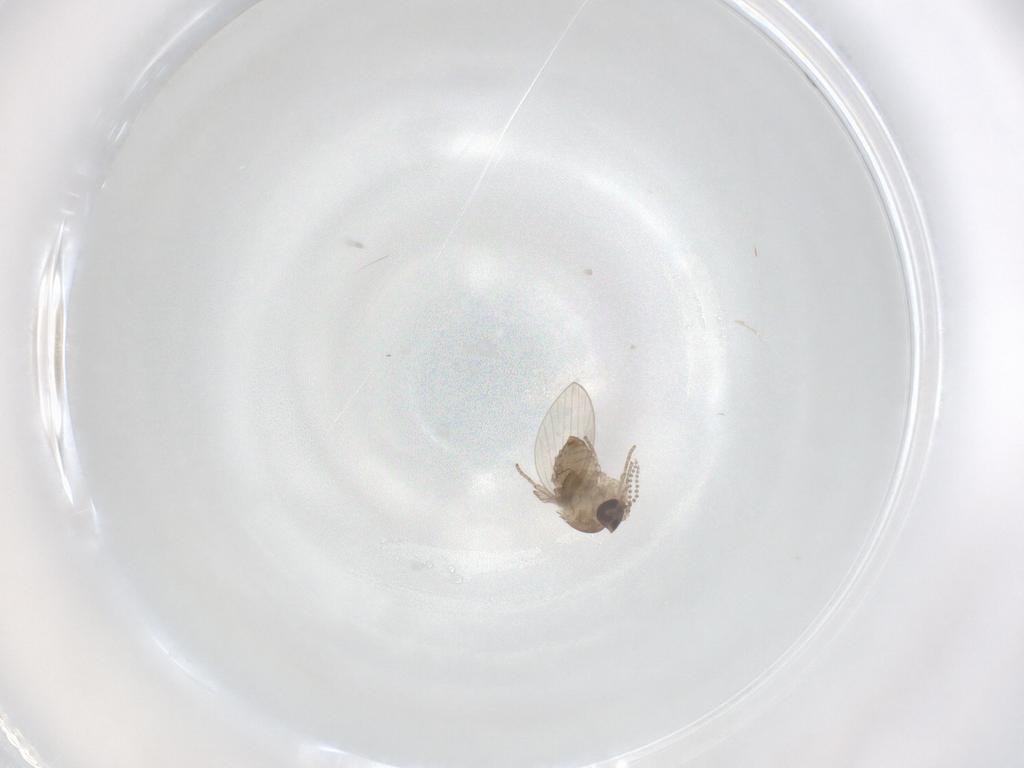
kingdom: Animalia
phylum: Arthropoda
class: Insecta
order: Diptera
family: Psychodidae
